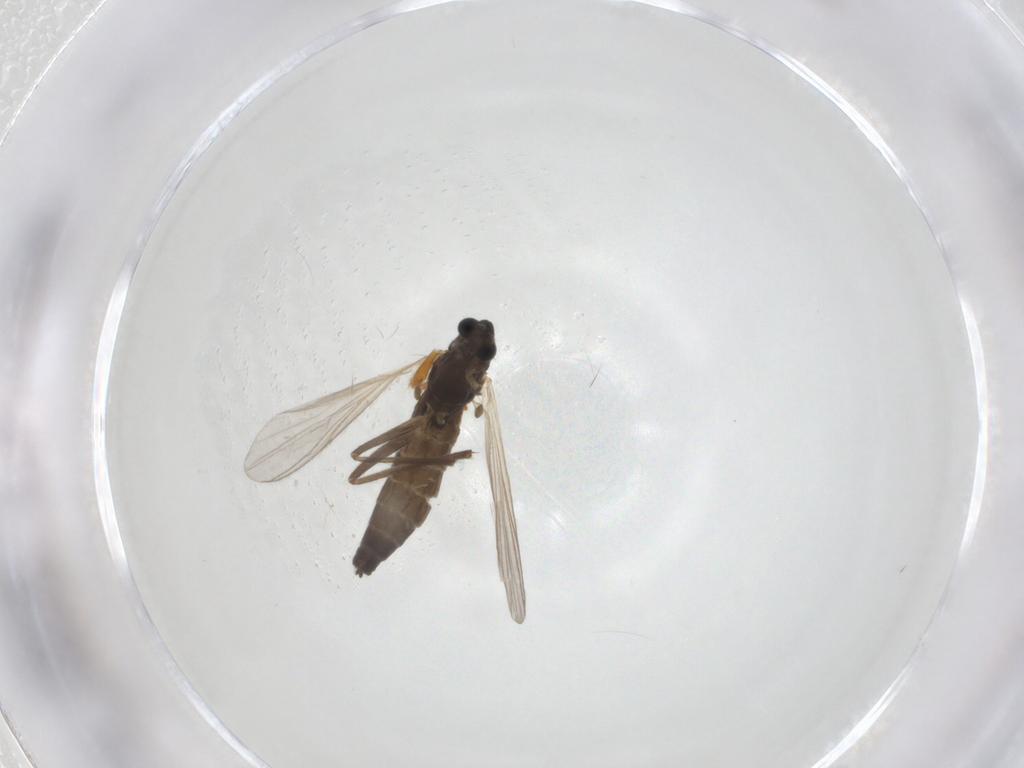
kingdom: Animalia
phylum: Arthropoda
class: Insecta
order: Diptera
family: Chironomidae
